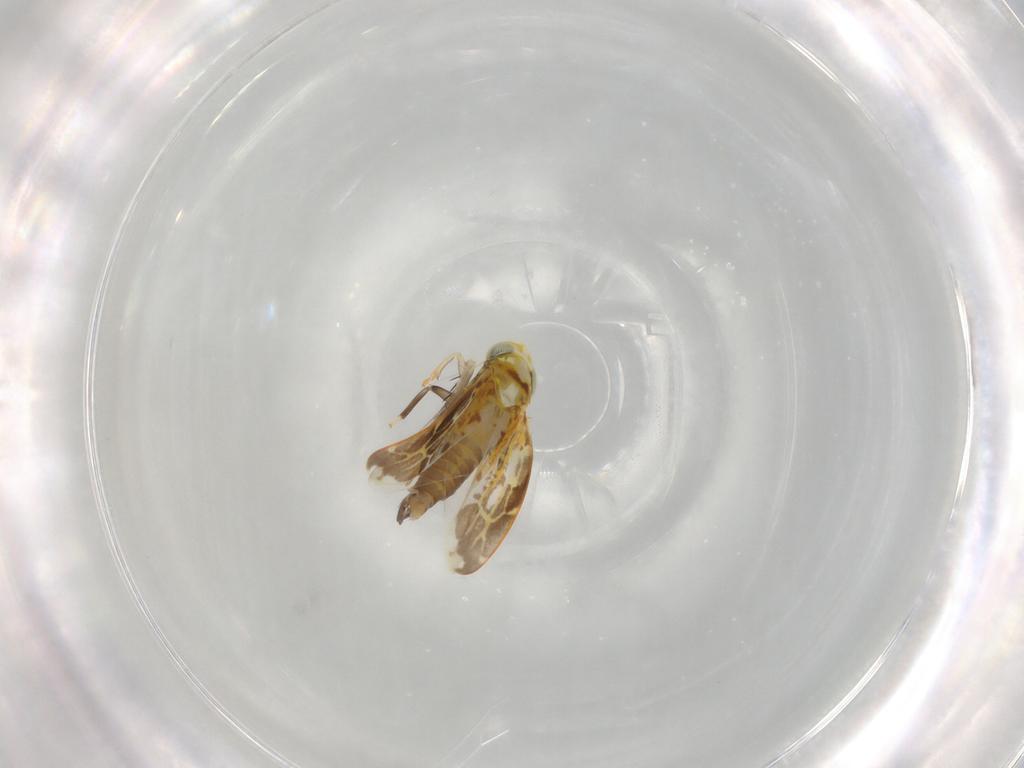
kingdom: Animalia
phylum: Arthropoda
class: Insecta
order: Hemiptera
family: Cicadellidae
